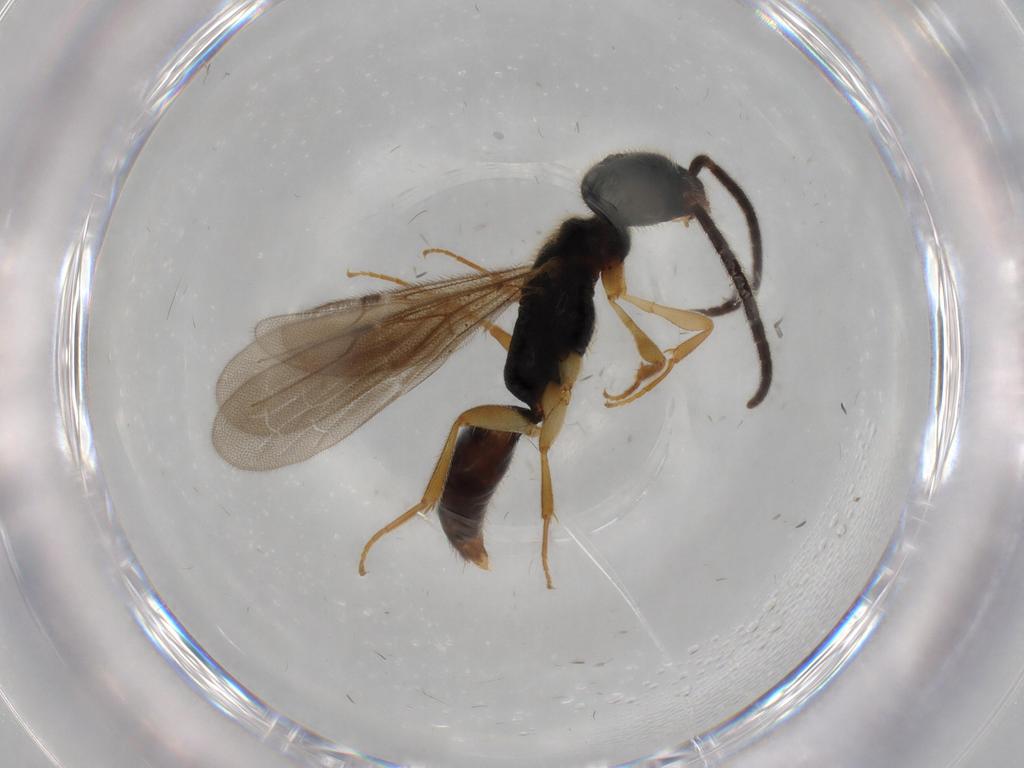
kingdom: Animalia
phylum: Arthropoda
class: Insecta
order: Hymenoptera
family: Bethylidae
